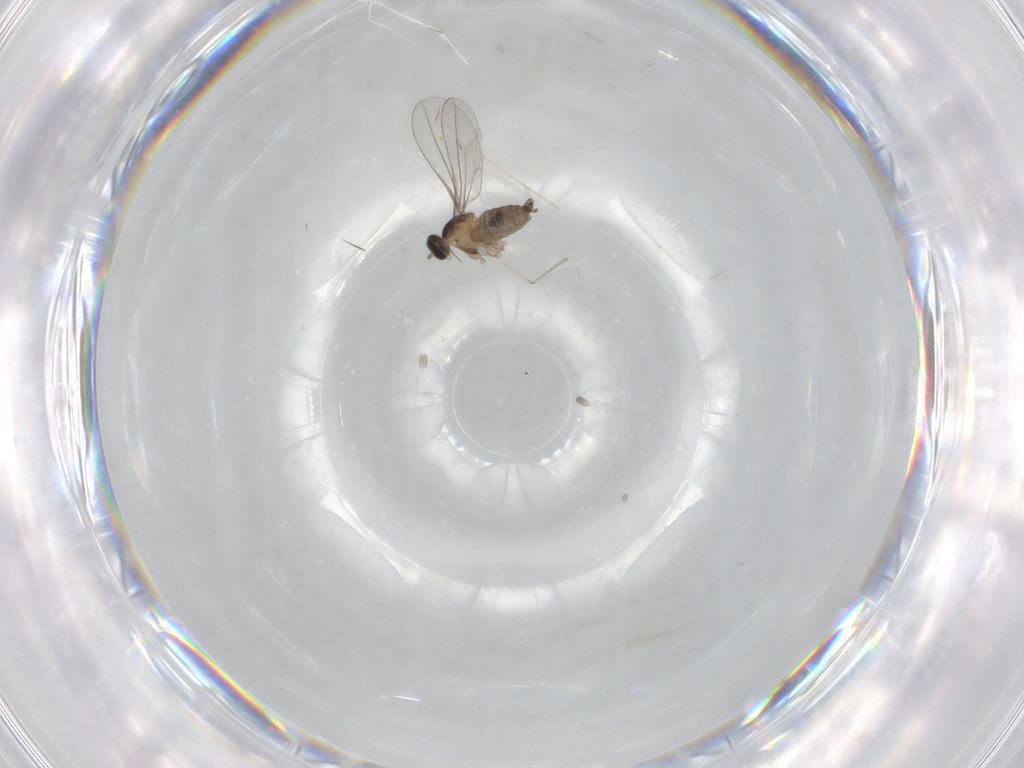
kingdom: Animalia
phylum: Arthropoda
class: Insecta
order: Diptera
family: Cecidomyiidae
